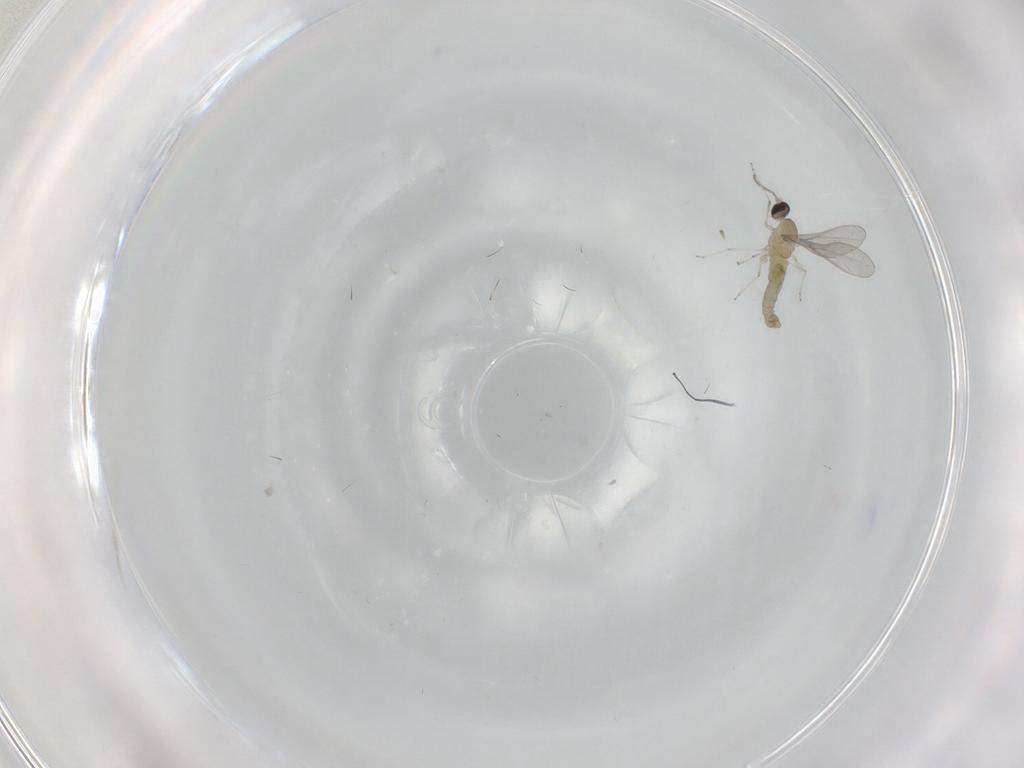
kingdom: Animalia
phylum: Arthropoda
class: Insecta
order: Diptera
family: Cecidomyiidae
